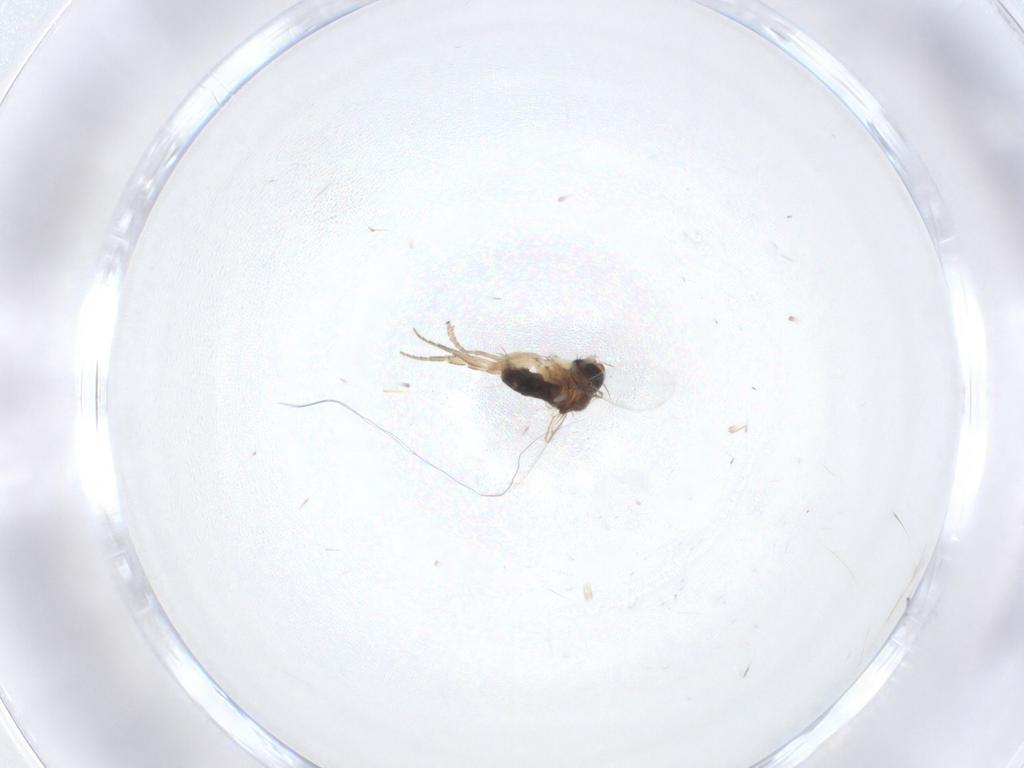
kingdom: Animalia
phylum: Arthropoda
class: Insecta
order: Diptera
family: Phoridae
